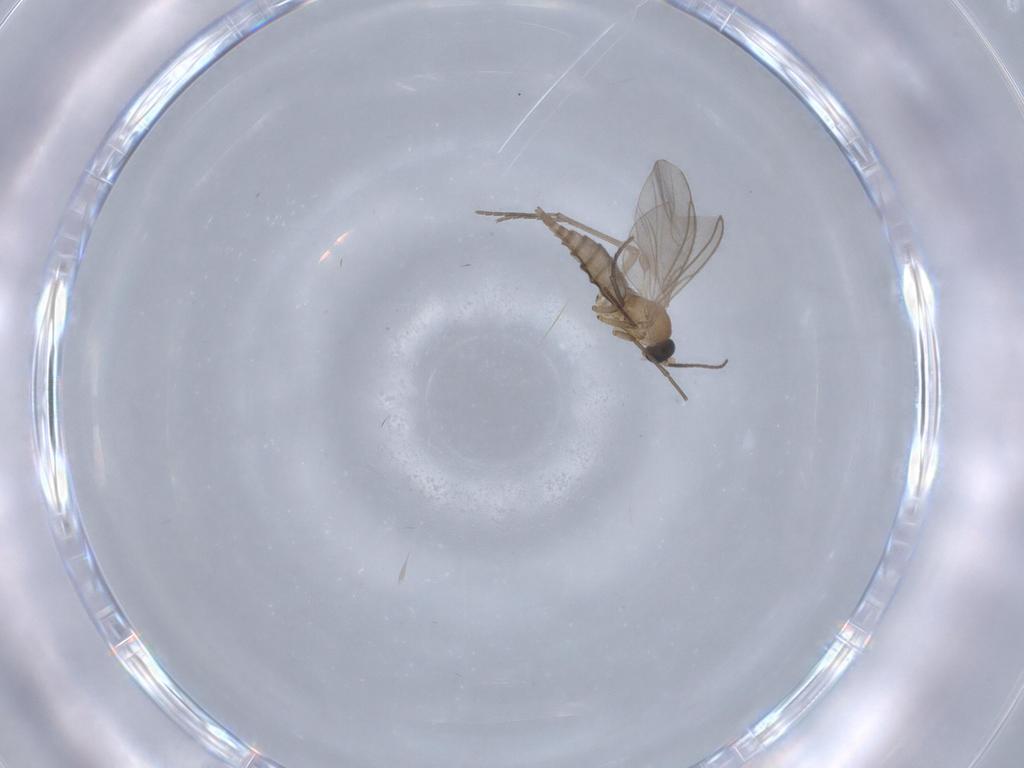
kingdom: Animalia
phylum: Arthropoda
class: Insecta
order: Diptera
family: Sciaridae
